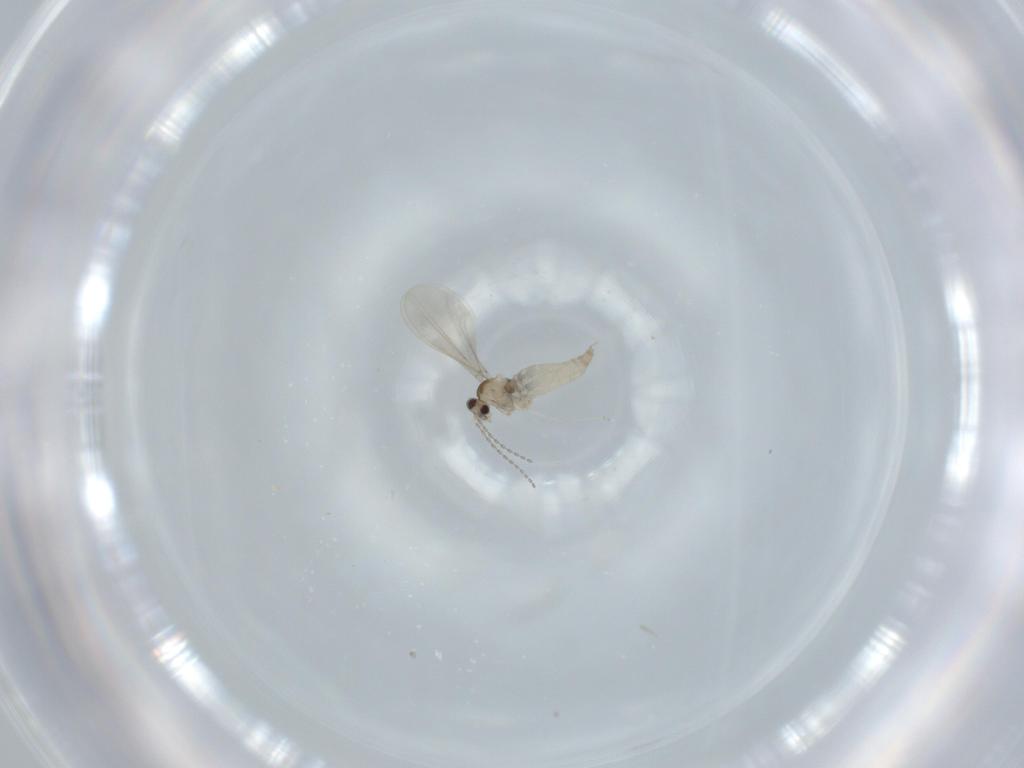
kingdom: Animalia
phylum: Arthropoda
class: Insecta
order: Diptera
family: Cecidomyiidae
